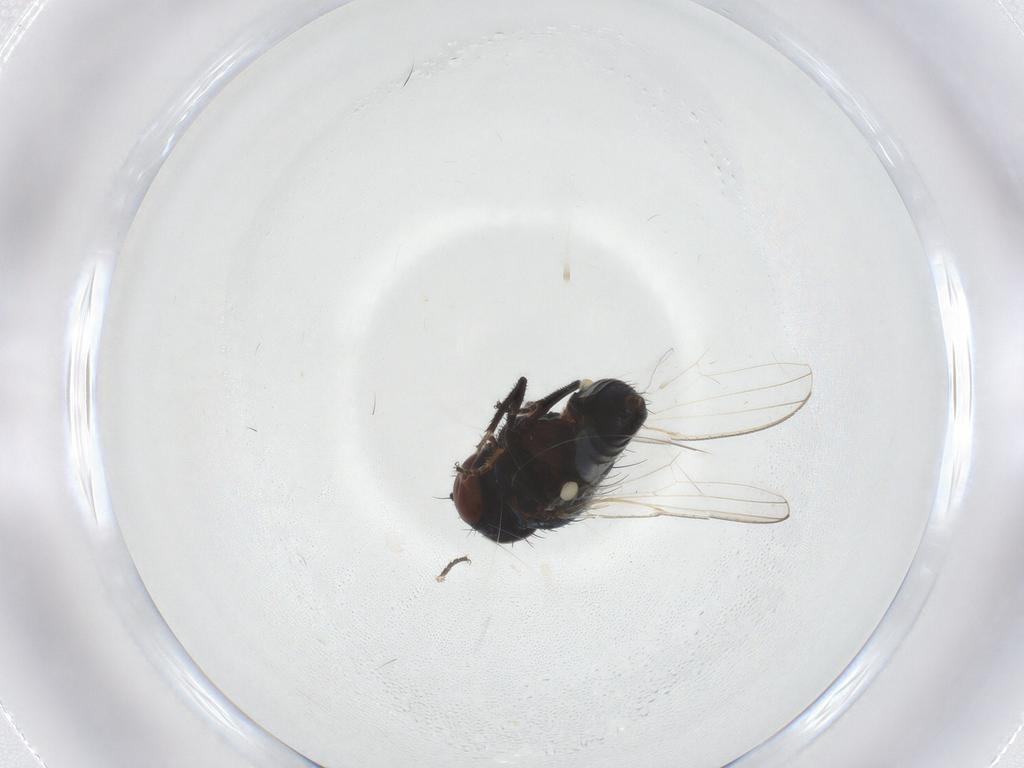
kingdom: Animalia
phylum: Arthropoda
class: Insecta
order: Diptera
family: Milichiidae
